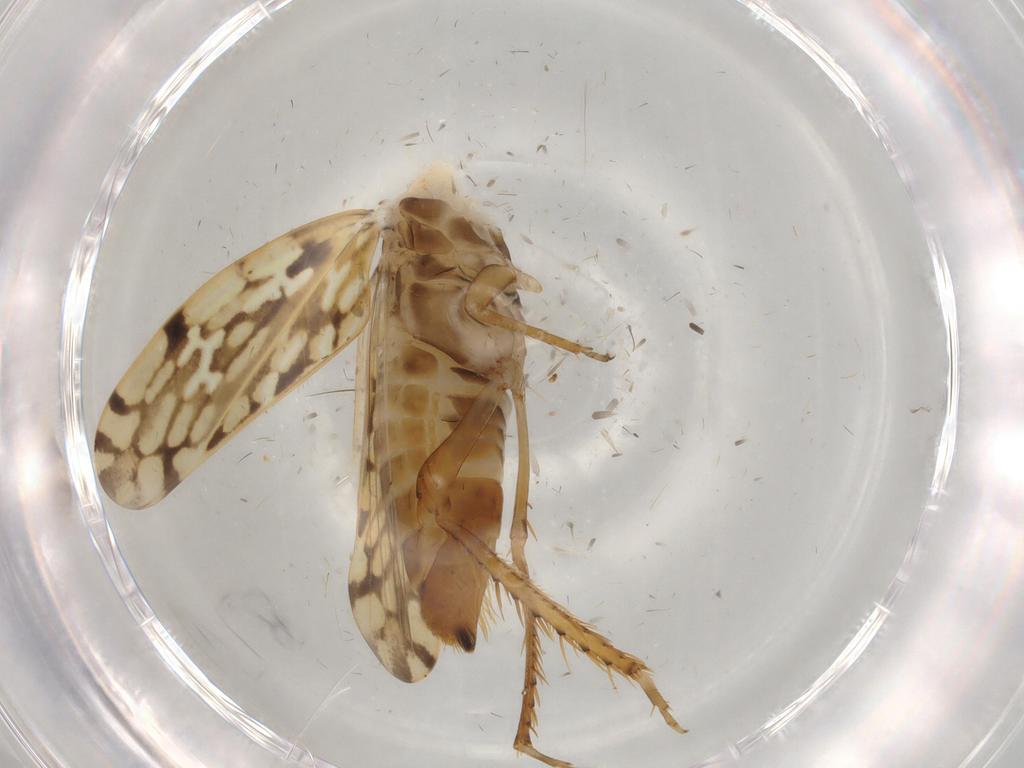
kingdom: Animalia
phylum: Arthropoda
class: Insecta
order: Hemiptera
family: Cicadellidae
